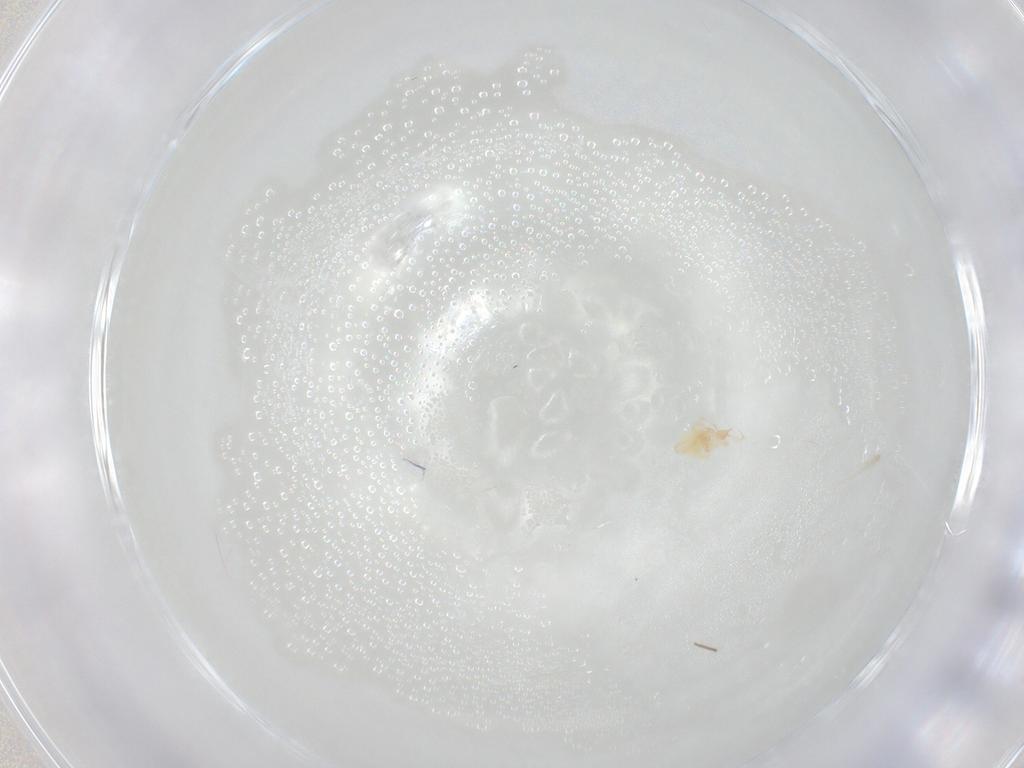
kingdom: Animalia
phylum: Arthropoda
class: Arachnida
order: Trombidiformes
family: Cunaxidae
